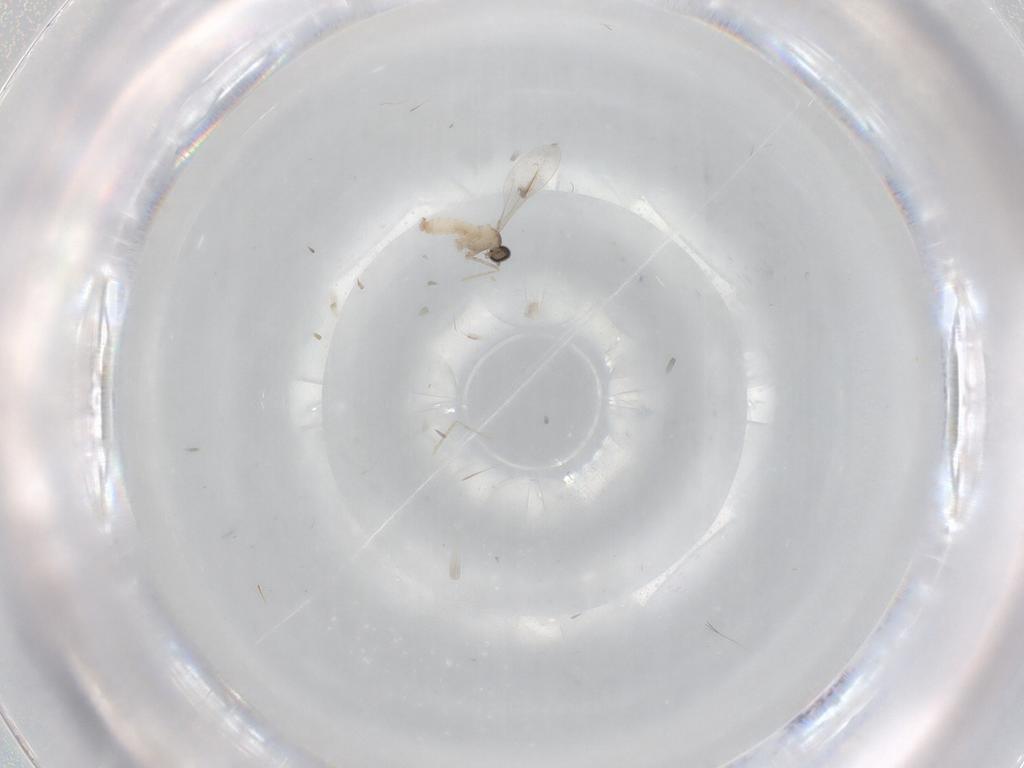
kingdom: Animalia
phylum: Arthropoda
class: Insecta
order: Diptera
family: Cecidomyiidae
